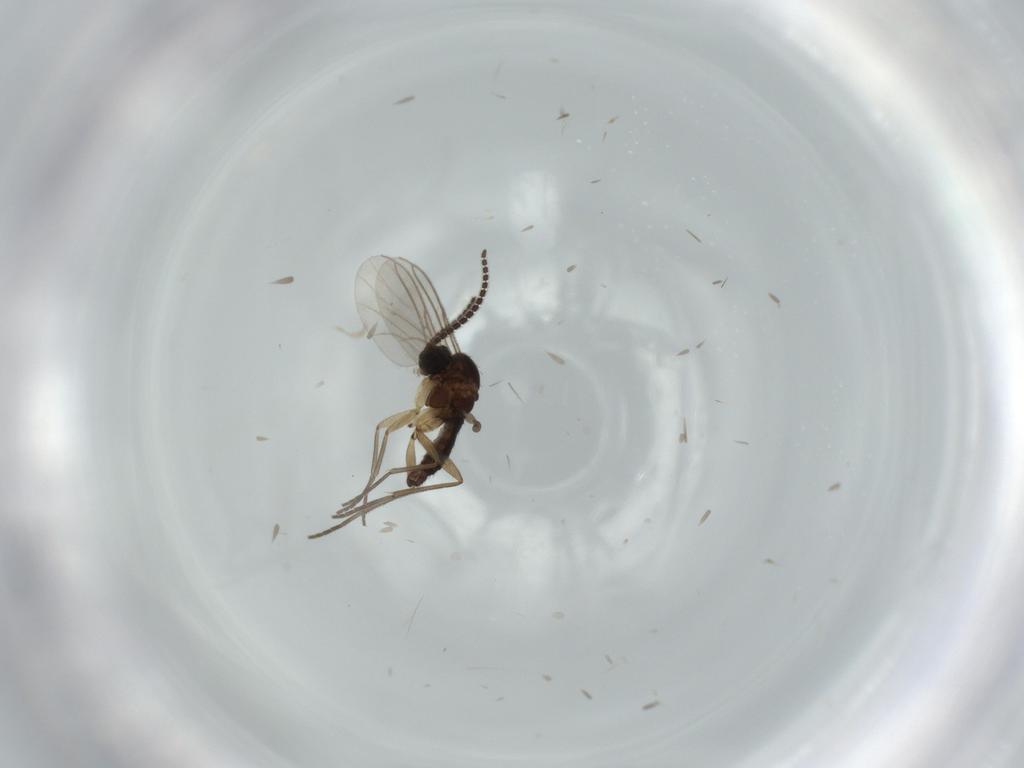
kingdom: Animalia
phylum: Arthropoda
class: Insecta
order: Diptera
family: Sciaridae
